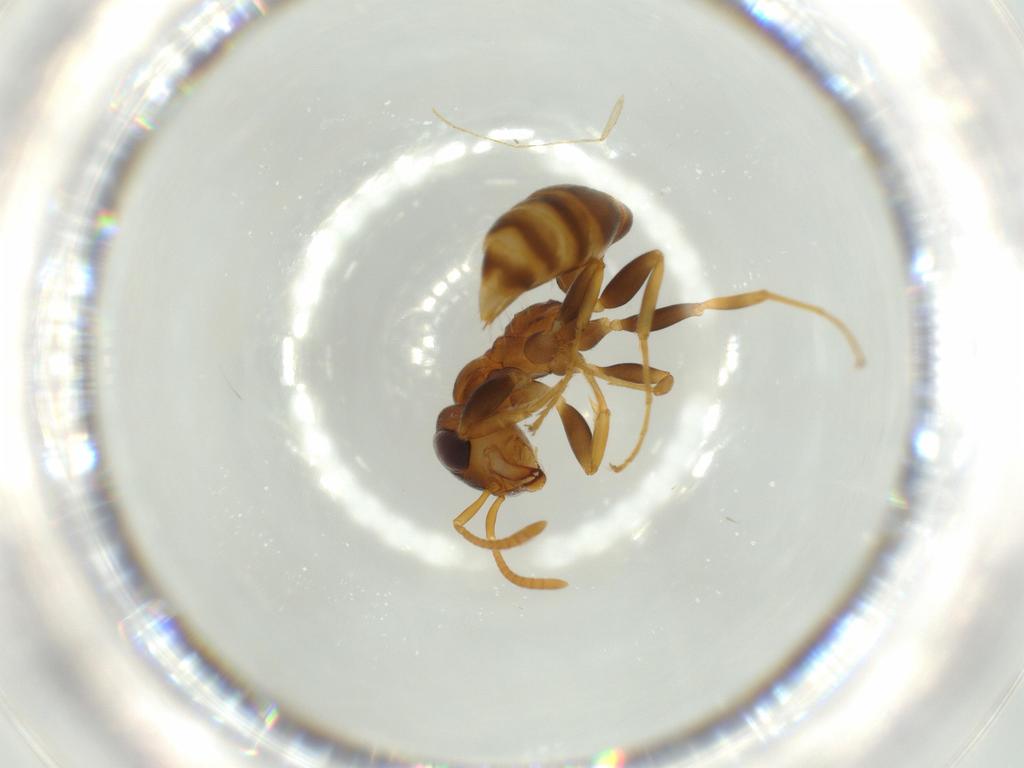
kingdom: Animalia
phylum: Arthropoda
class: Insecta
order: Hymenoptera
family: Formicidae
